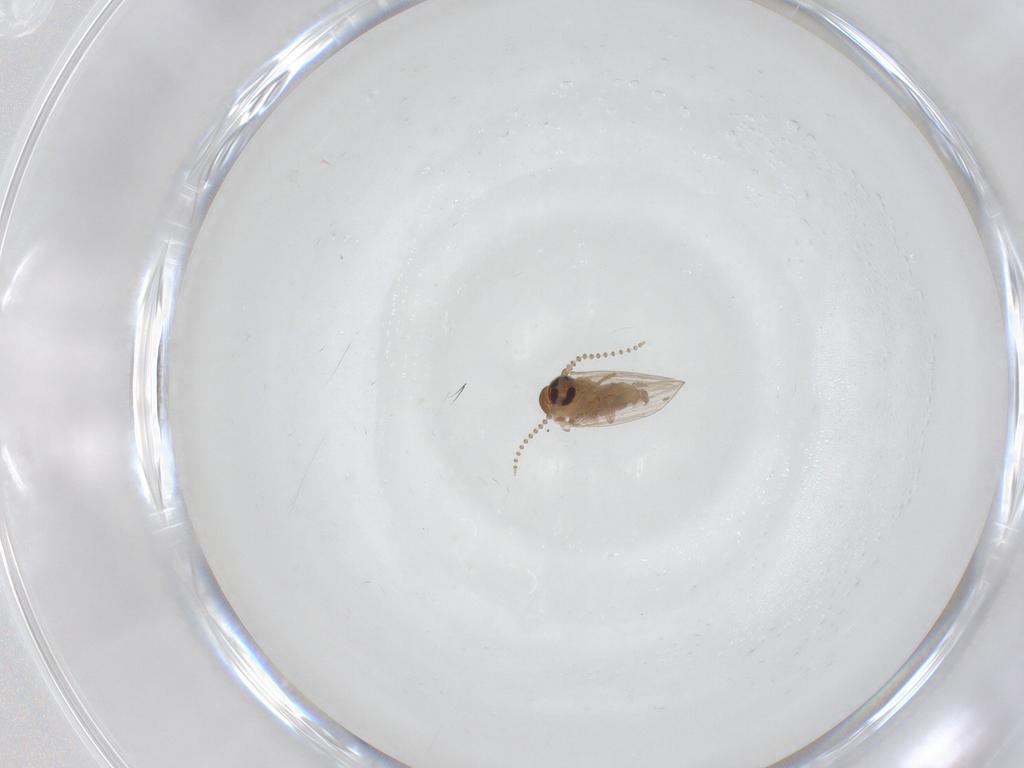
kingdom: Animalia
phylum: Arthropoda
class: Insecta
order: Diptera
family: Psychodidae
